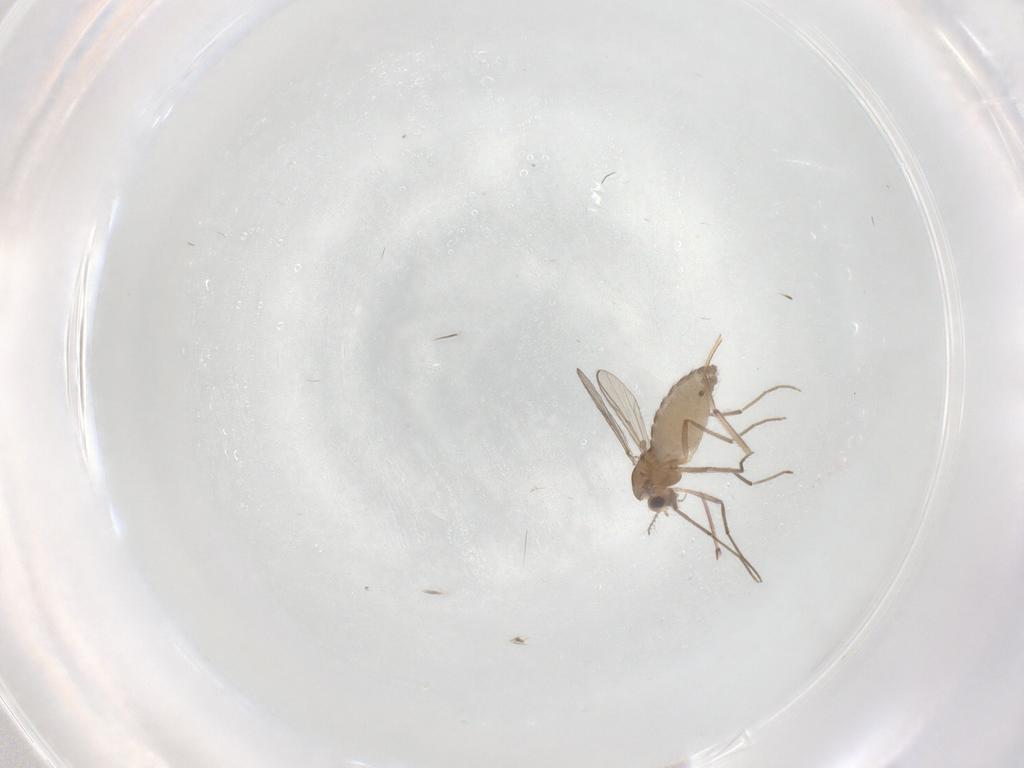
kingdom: Animalia
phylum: Arthropoda
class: Insecta
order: Diptera
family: Chironomidae
